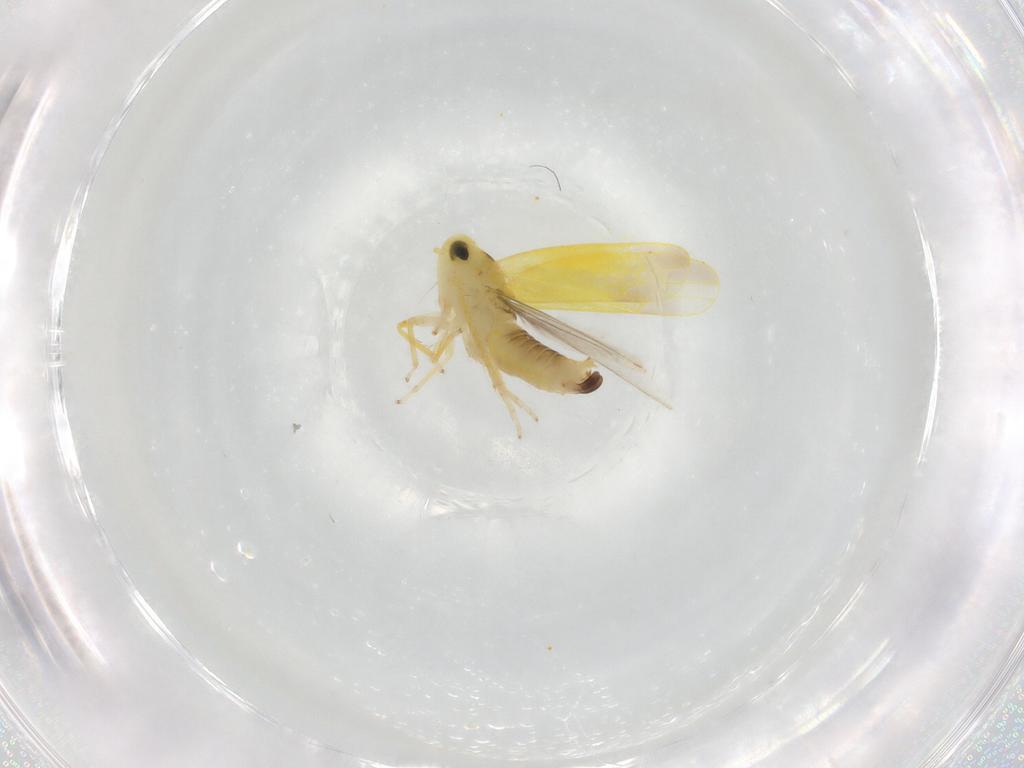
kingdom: Animalia
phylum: Arthropoda
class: Insecta
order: Hemiptera
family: Cicadellidae
